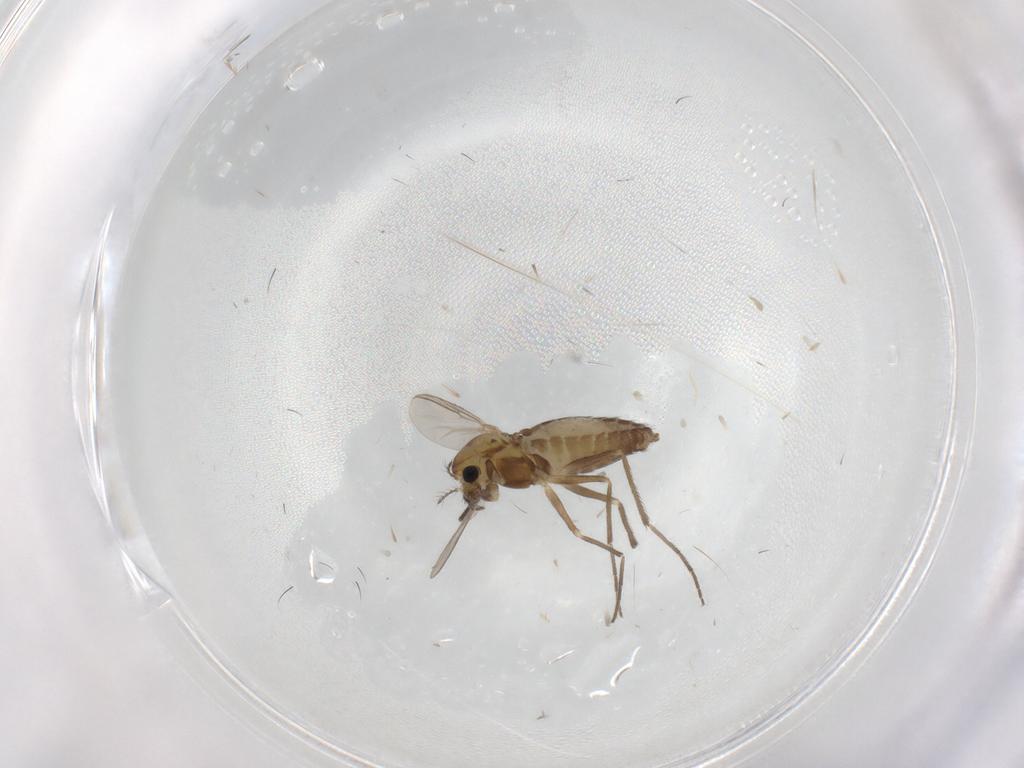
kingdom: Animalia
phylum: Arthropoda
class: Insecta
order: Diptera
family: Chironomidae
